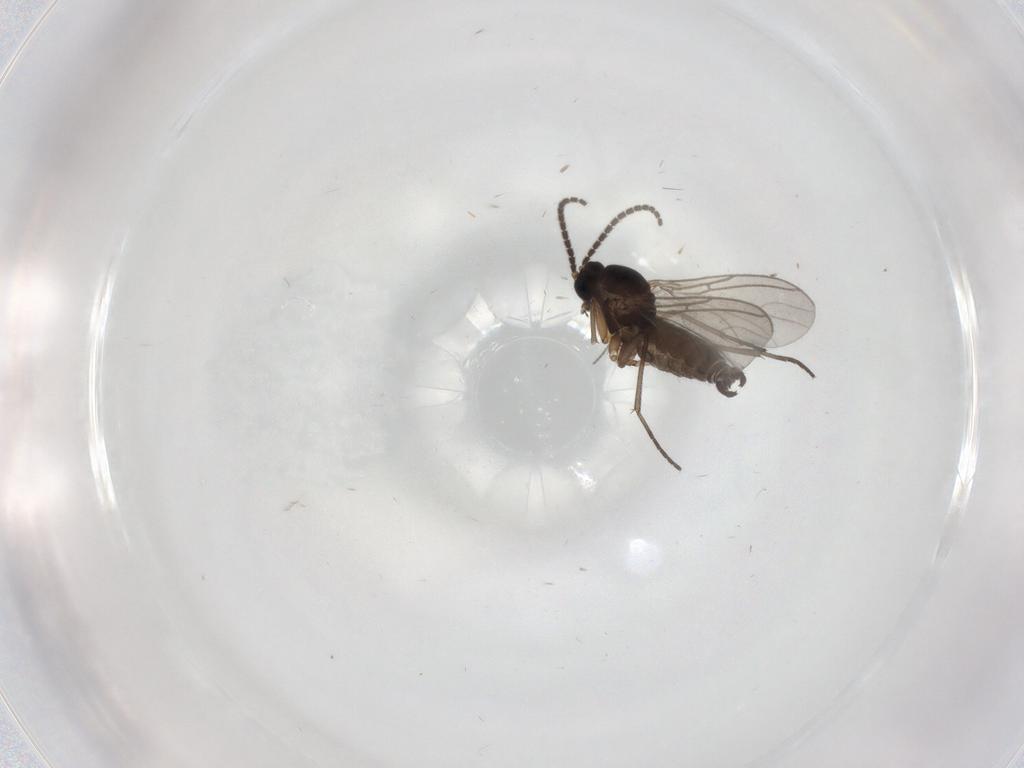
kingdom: Animalia
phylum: Arthropoda
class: Insecta
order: Diptera
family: Sciaridae
